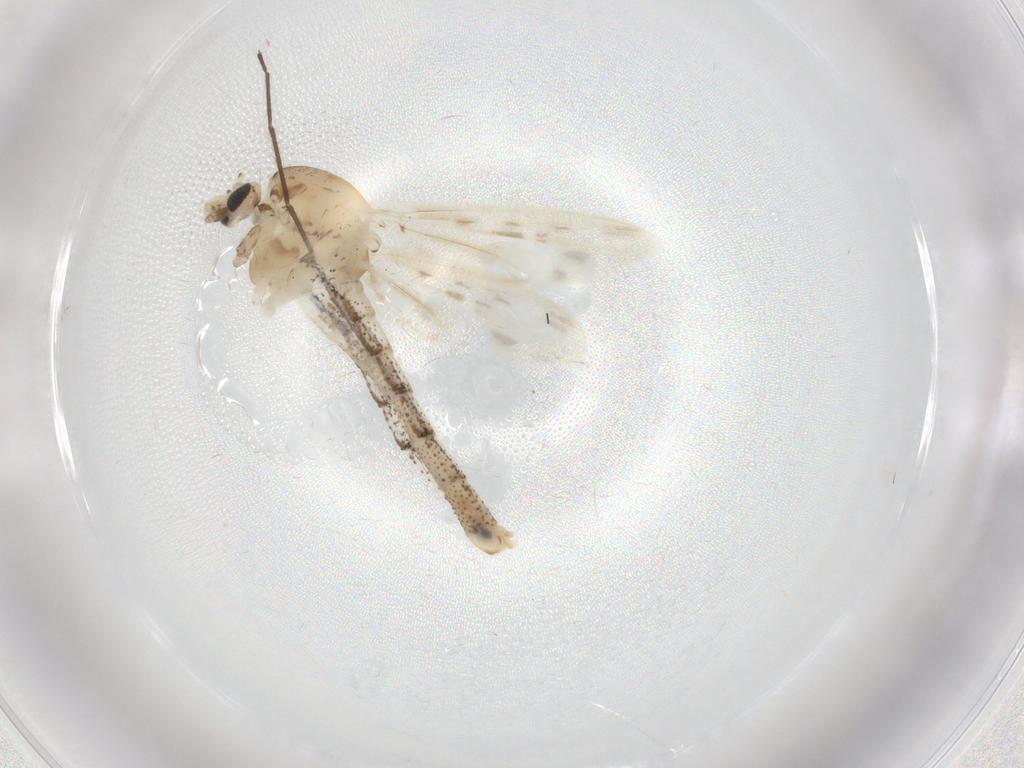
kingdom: Animalia
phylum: Arthropoda
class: Insecta
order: Diptera
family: Chaoboridae
